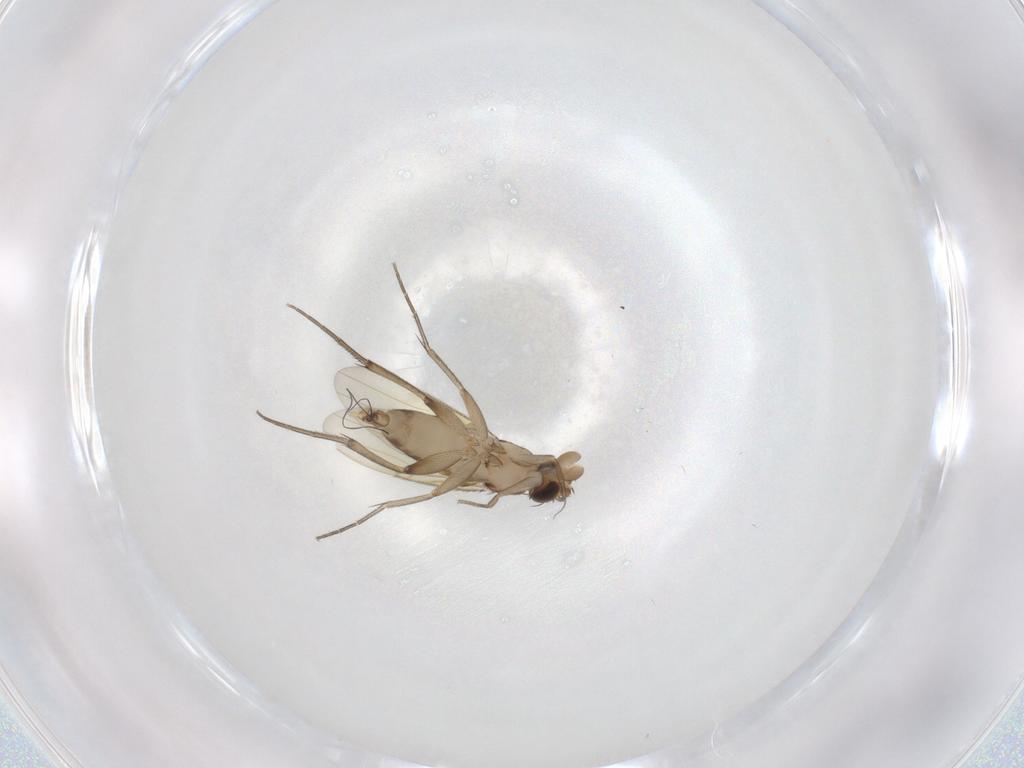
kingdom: Animalia
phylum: Arthropoda
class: Insecta
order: Diptera
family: Phoridae
